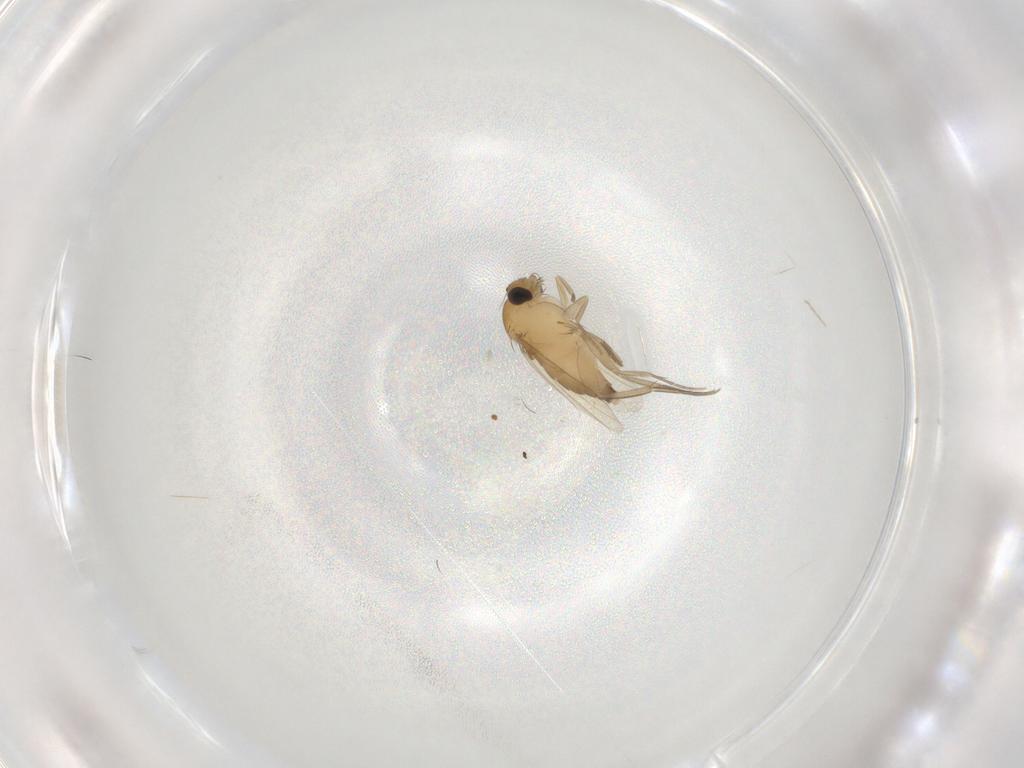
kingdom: Animalia
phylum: Arthropoda
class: Insecta
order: Diptera
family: Phoridae
